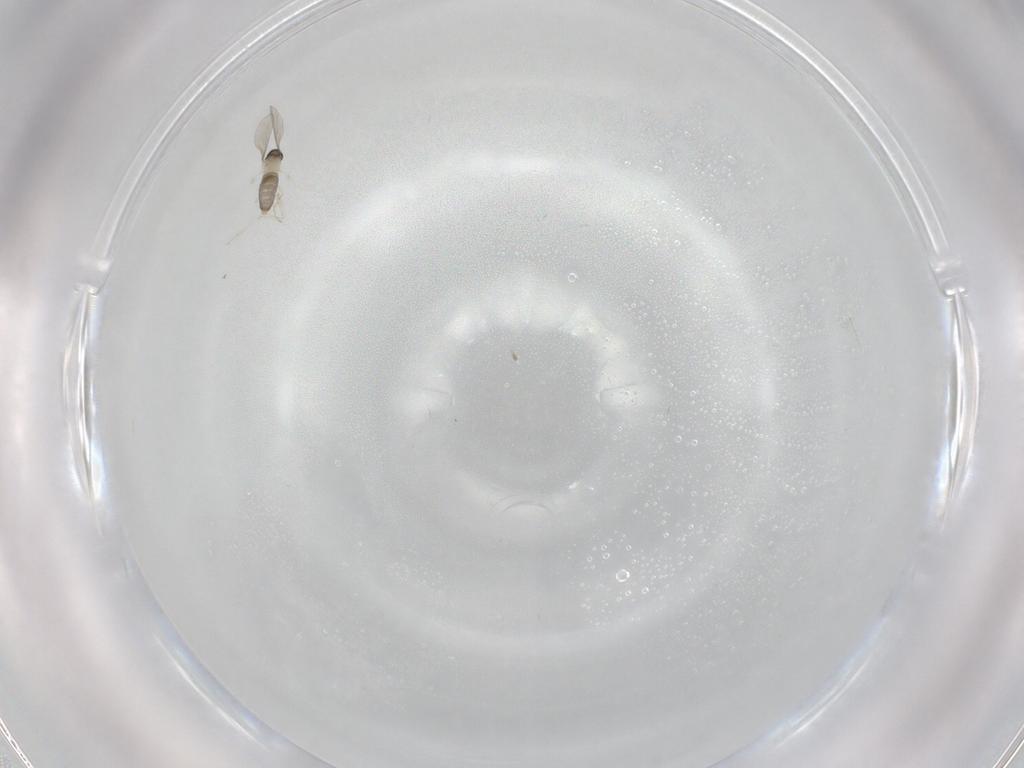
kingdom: Animalia
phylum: Arthropoda
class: Insecta
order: Diptera
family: Cecidomyiidae
